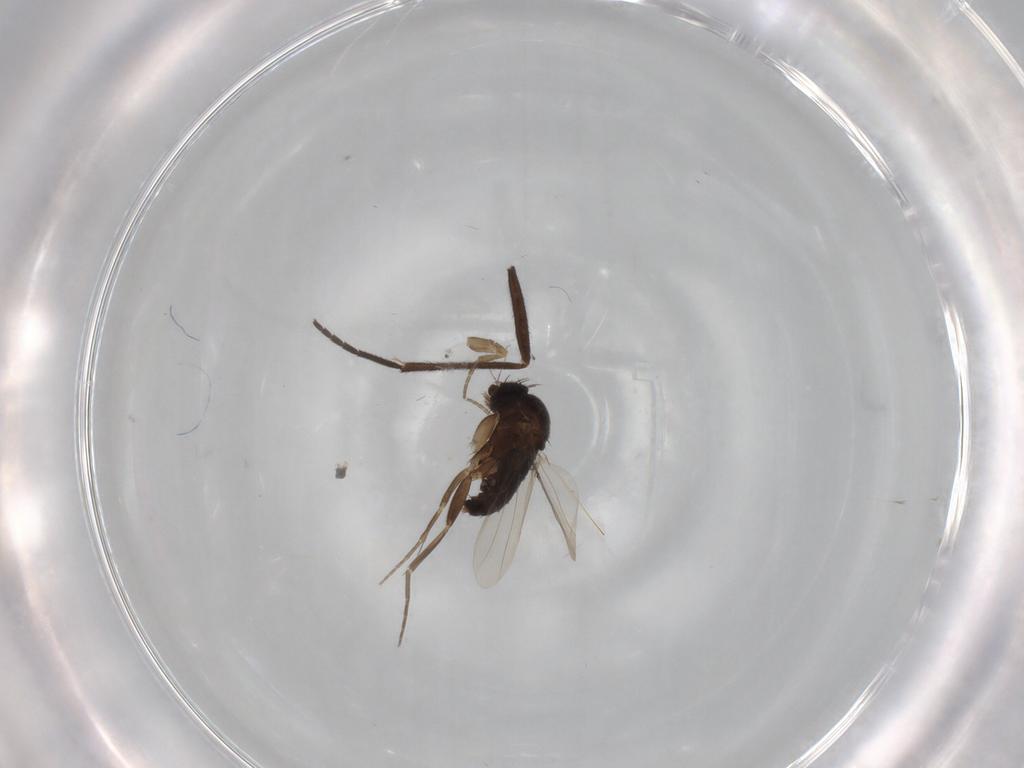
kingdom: Animalia
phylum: Arthropoda
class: Insecta
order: Diptera
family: Phoridae
